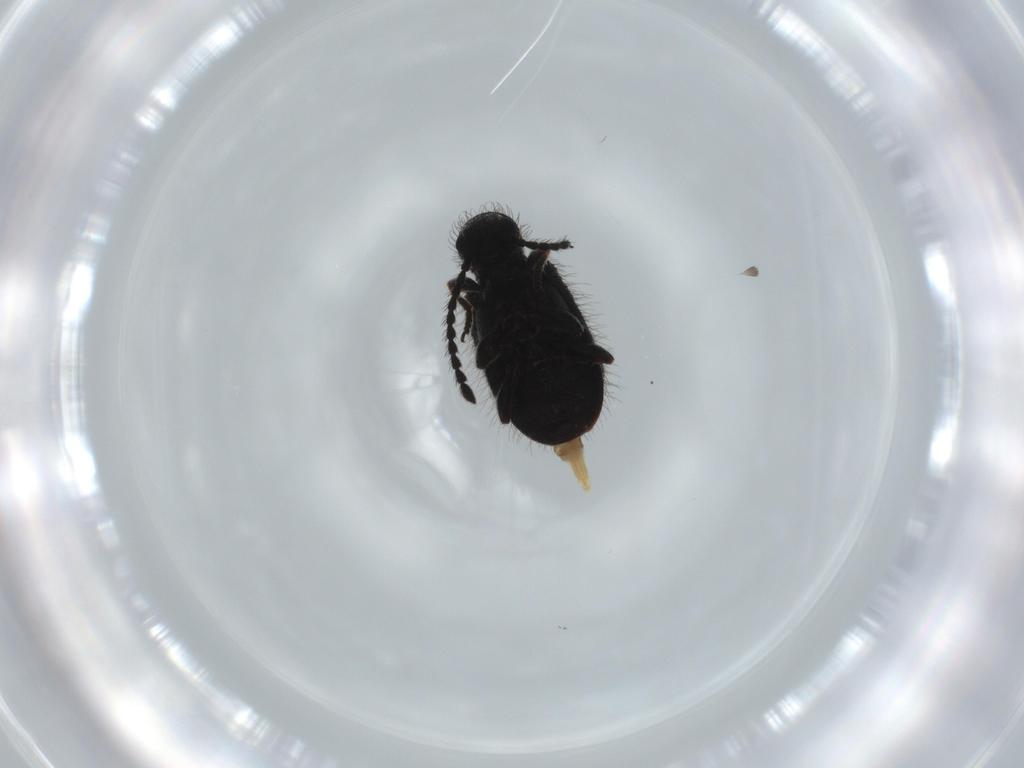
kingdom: Animalia
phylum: Arthropoda
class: Insecta
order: Coleoptera
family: Ptinidae
